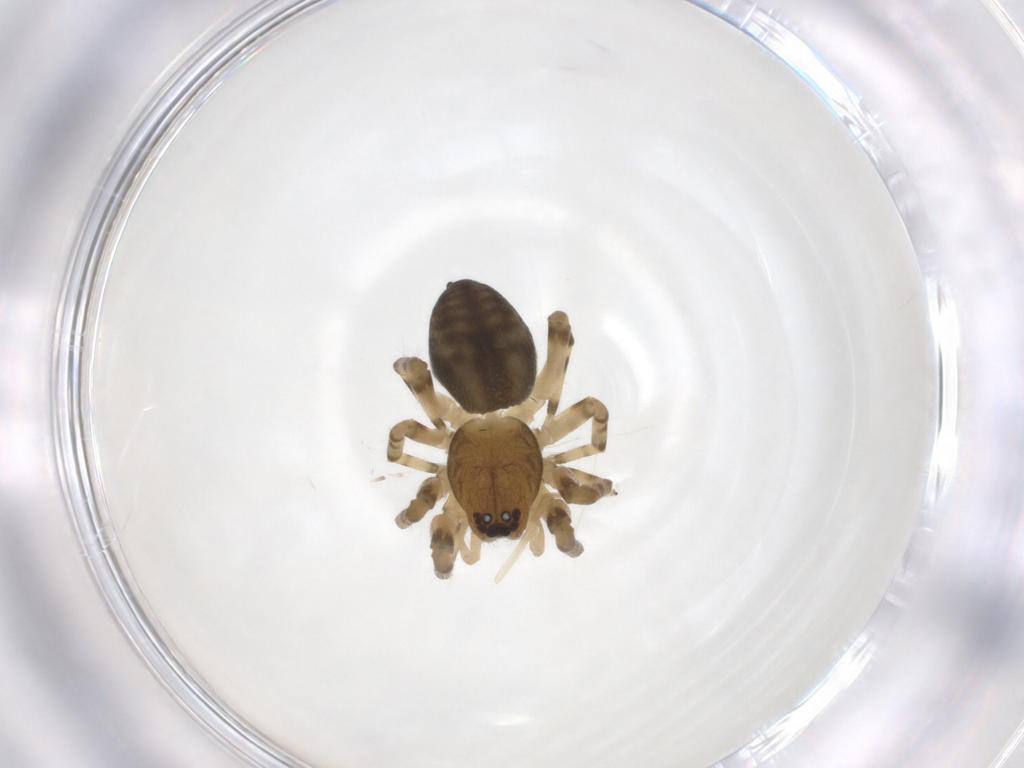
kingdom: Animalia
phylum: Arthropoda
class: Arachnida
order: Araneae
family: Trachelidae
